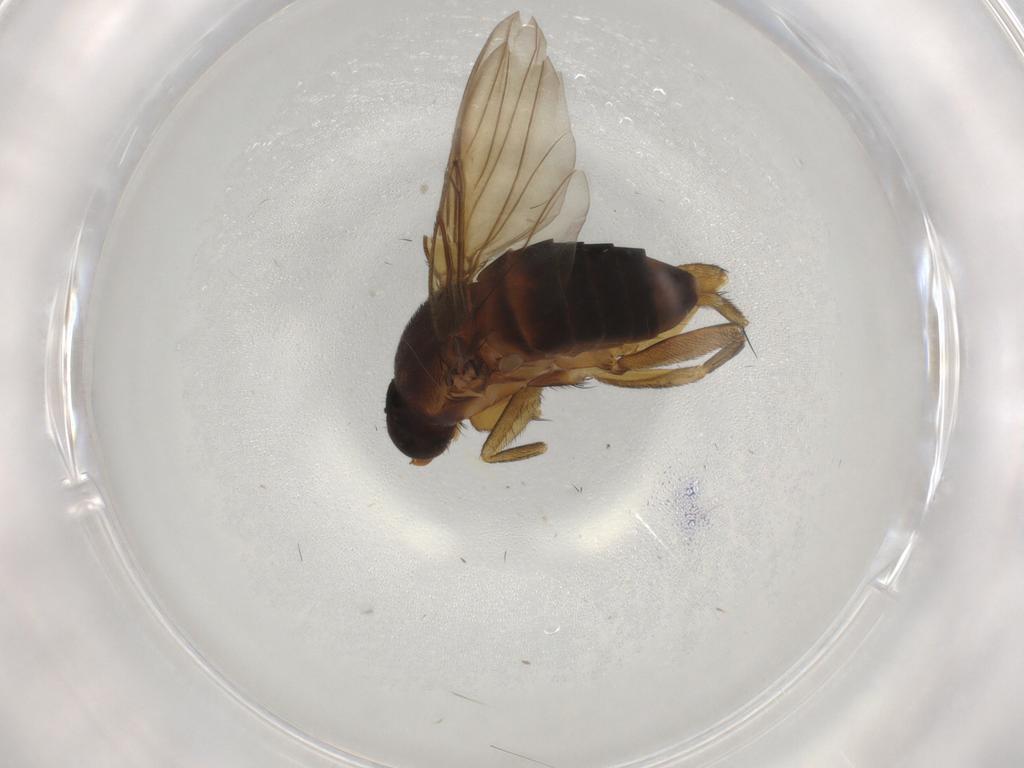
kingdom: Animalia
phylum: Arthropoda
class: Insecta
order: Diptera
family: Phoridae
